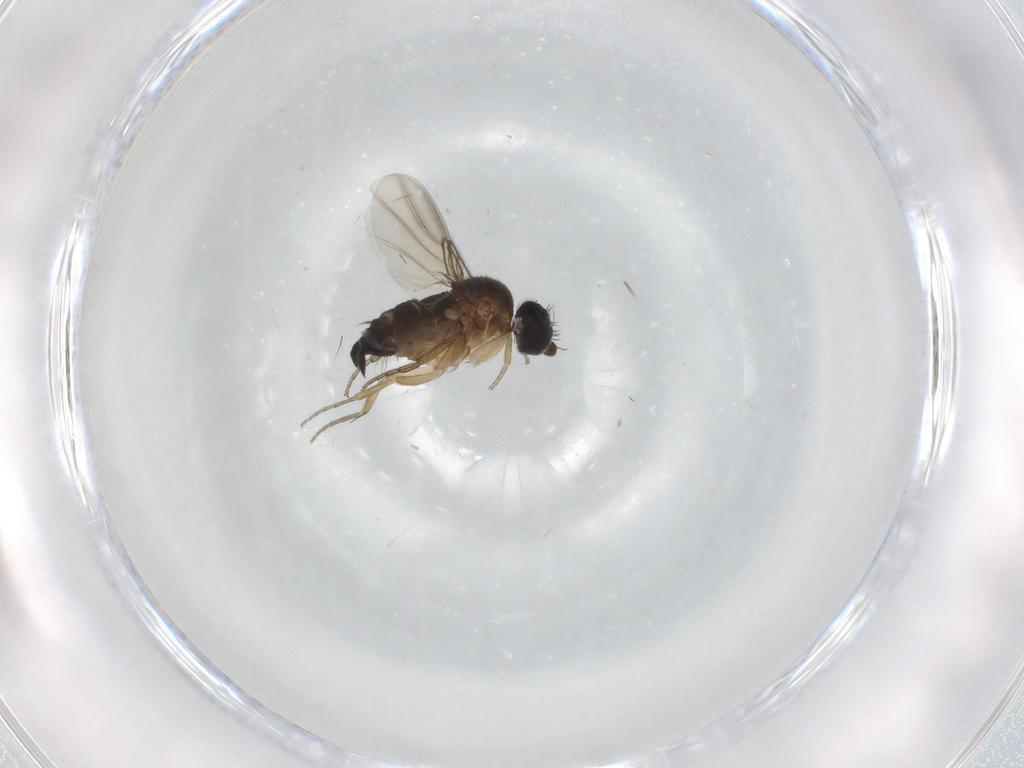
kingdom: Animalia
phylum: Arthropoda
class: Insecta
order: Diptera
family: Phoridae
